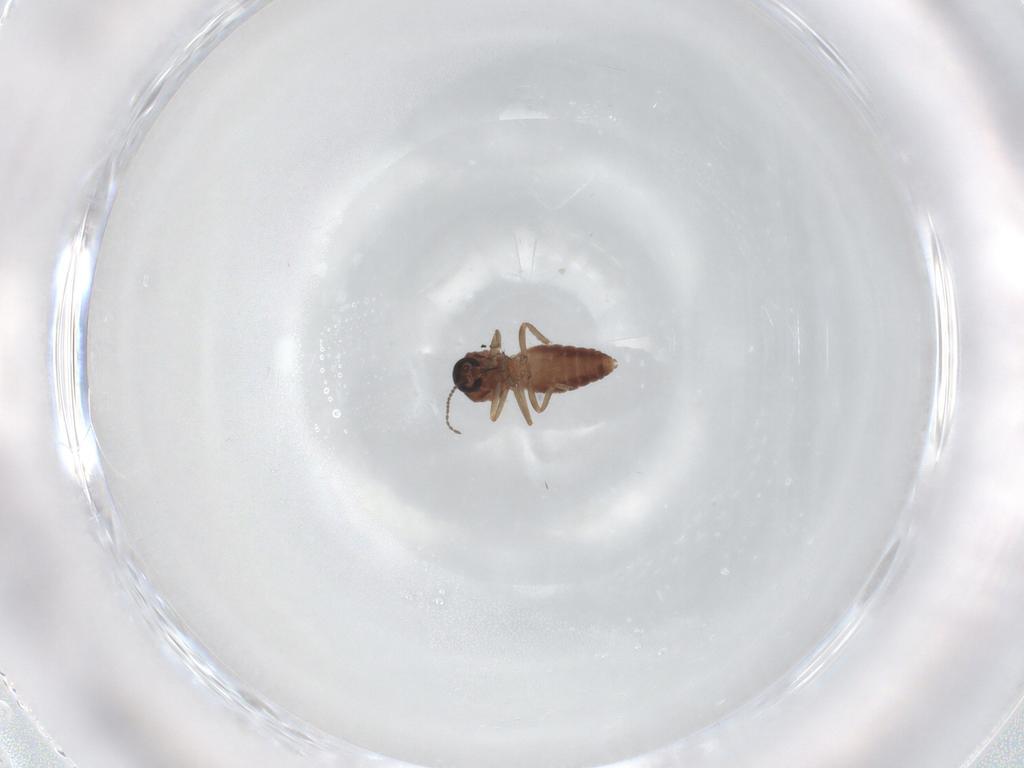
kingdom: Animalia
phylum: Arthropoda
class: Insecta
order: Diptera
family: Ceratopogonidae
